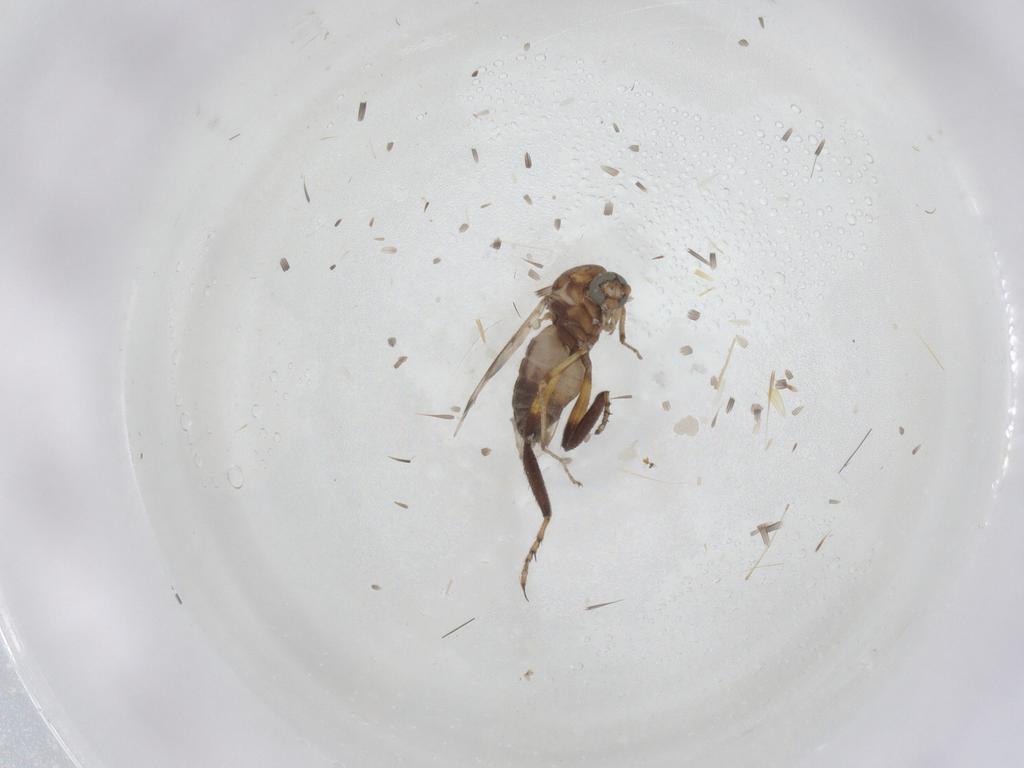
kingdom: Animalia
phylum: Arthropoda
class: Insecta
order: Diptera
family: Ceratopogonidae
